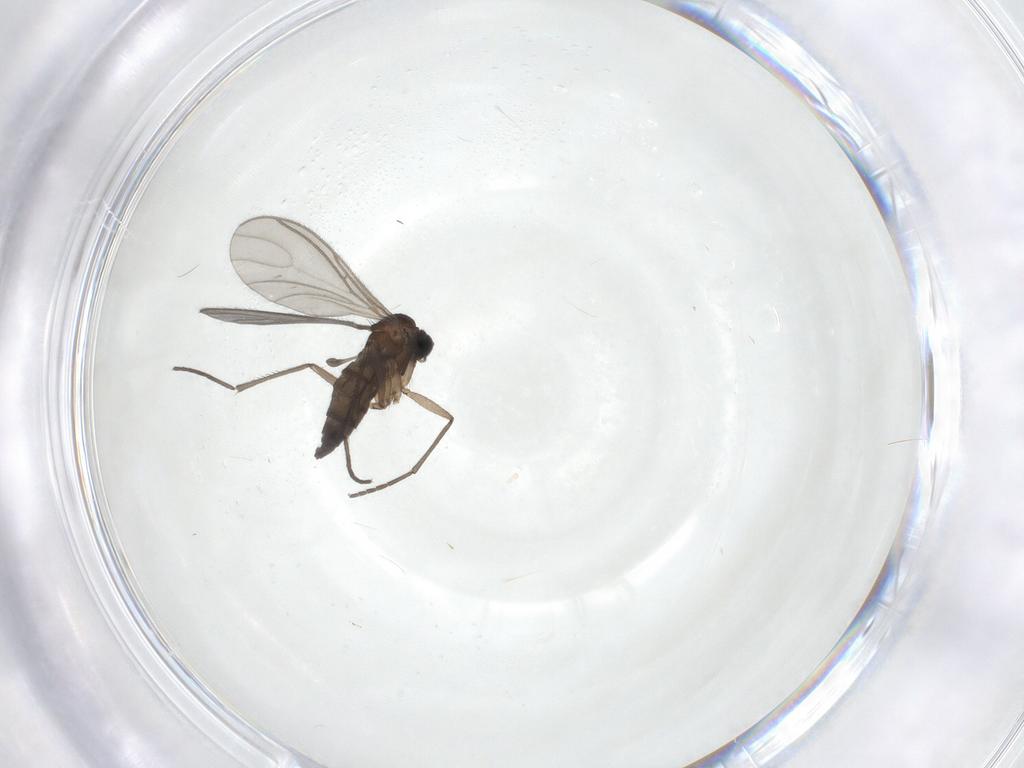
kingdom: Animalia
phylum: Arthropoda
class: Insecta
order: Diptera
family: Sciaridae
